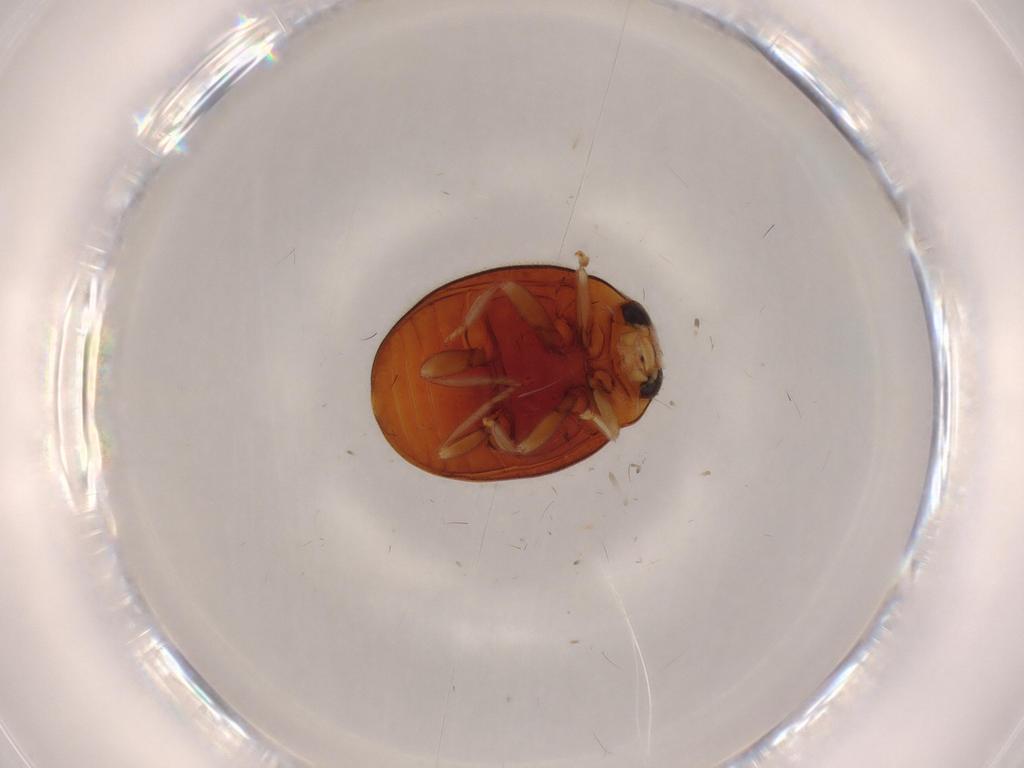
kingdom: Animalia
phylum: Arthropoda
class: Insecta
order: Coleoptera
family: Coccinellidae
